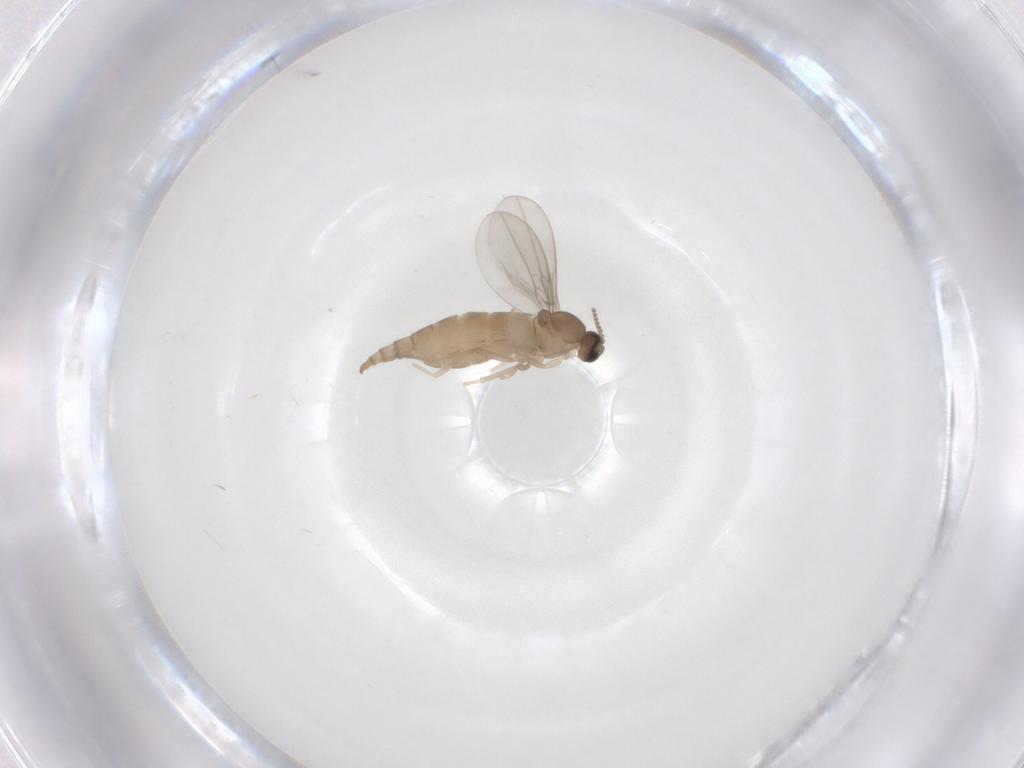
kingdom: Animalia
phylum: Arthropoda
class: Insecta
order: Diptera
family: Cecidomyiidae
